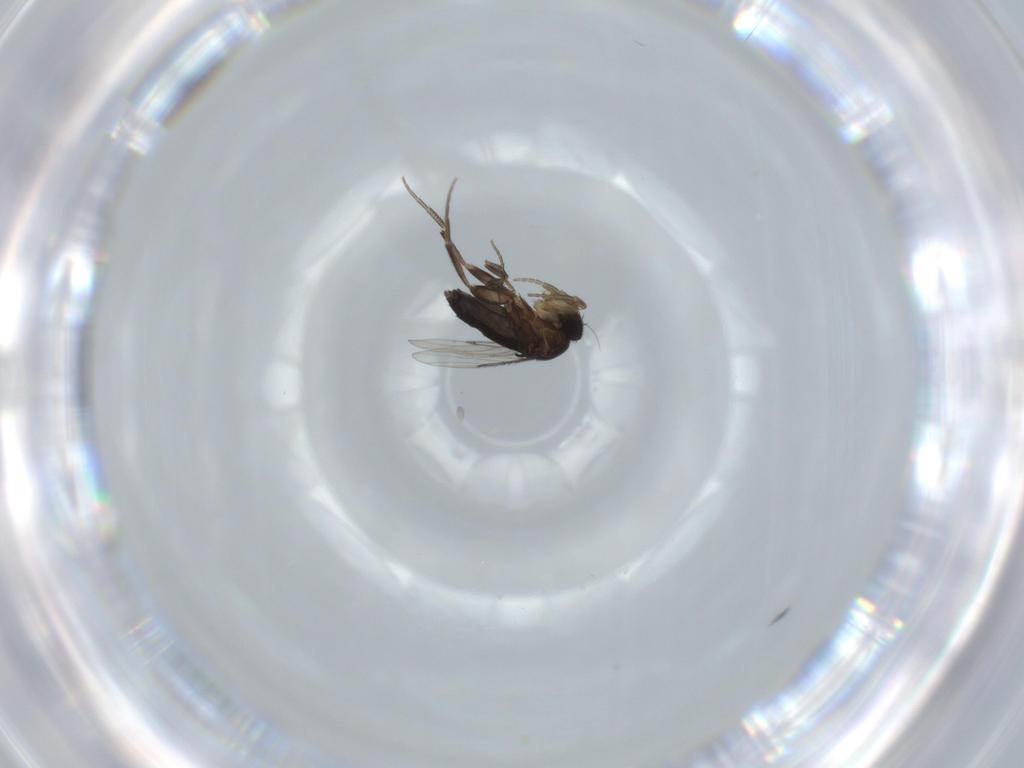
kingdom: Animalia
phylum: Arthropoda
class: Insecta
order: Diptera
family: Phoridae
